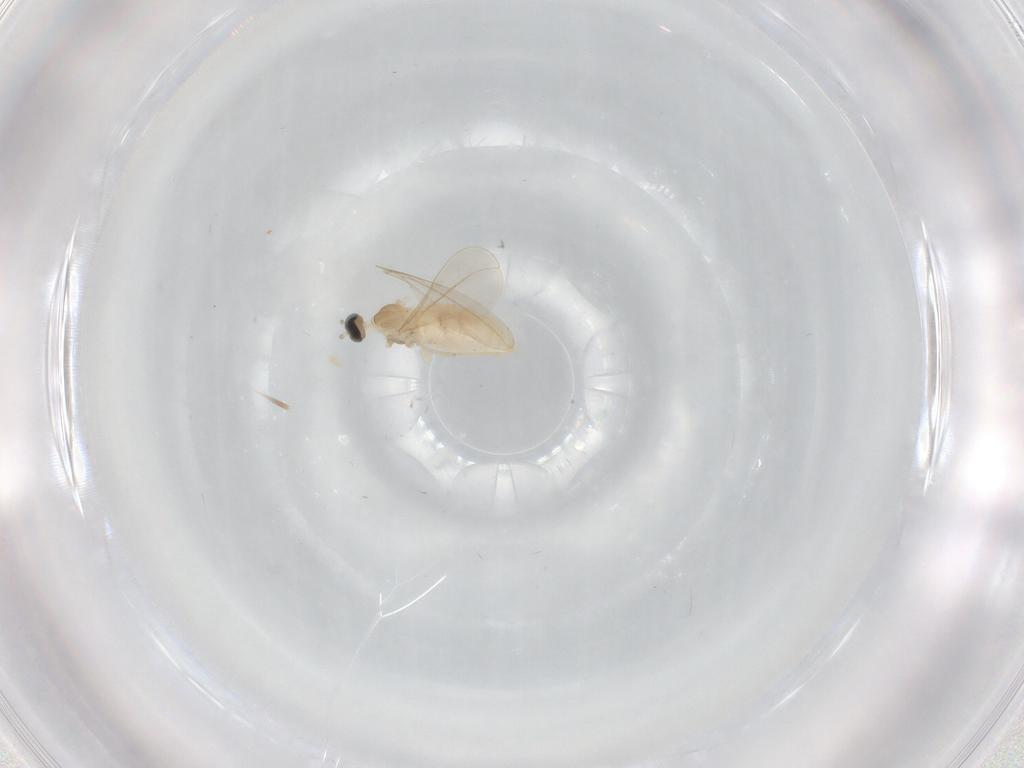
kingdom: Animalia
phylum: Arthropoda
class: Insecta
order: Diptera
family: Cecidomyiidae
